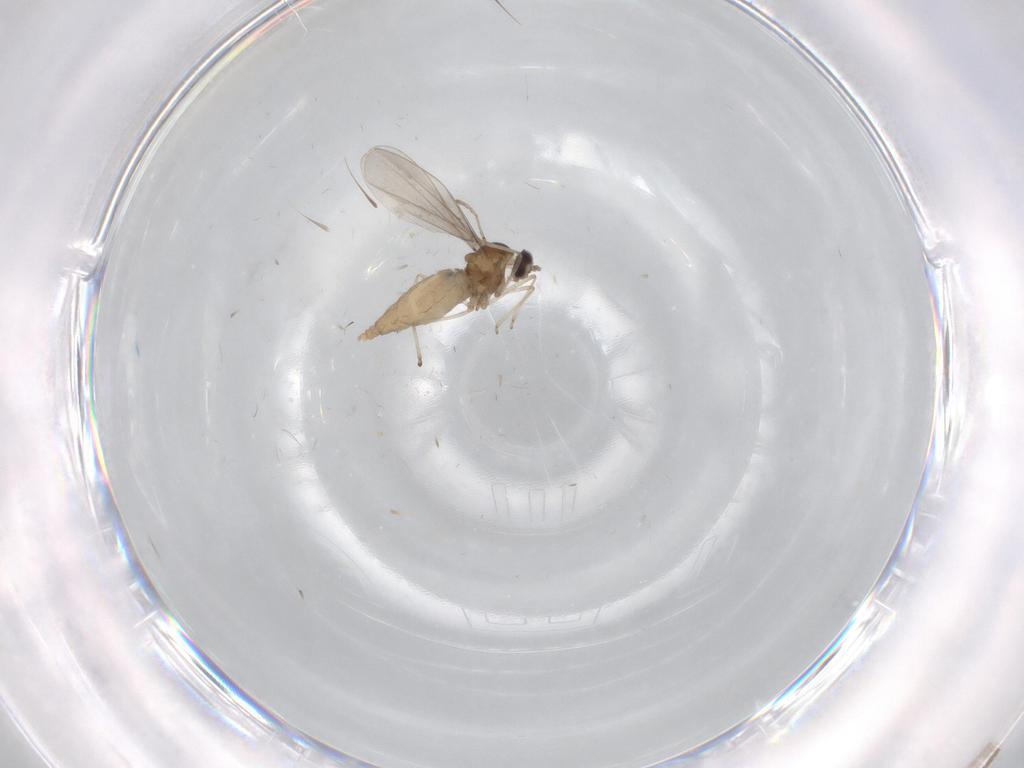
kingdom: Animalia
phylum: Arthropoda
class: Insecta
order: Diptera
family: Cecidomyiidae
